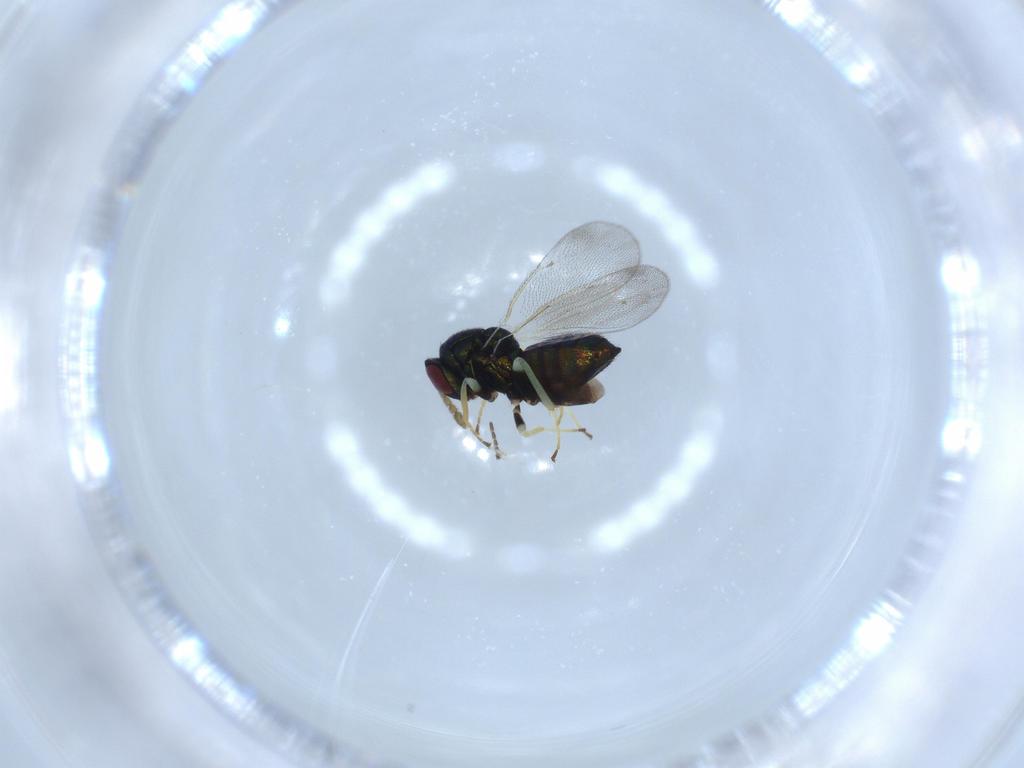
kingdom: Animalia
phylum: Arthropoda
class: Insecta
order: Hymenoptera
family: Eulophidae
